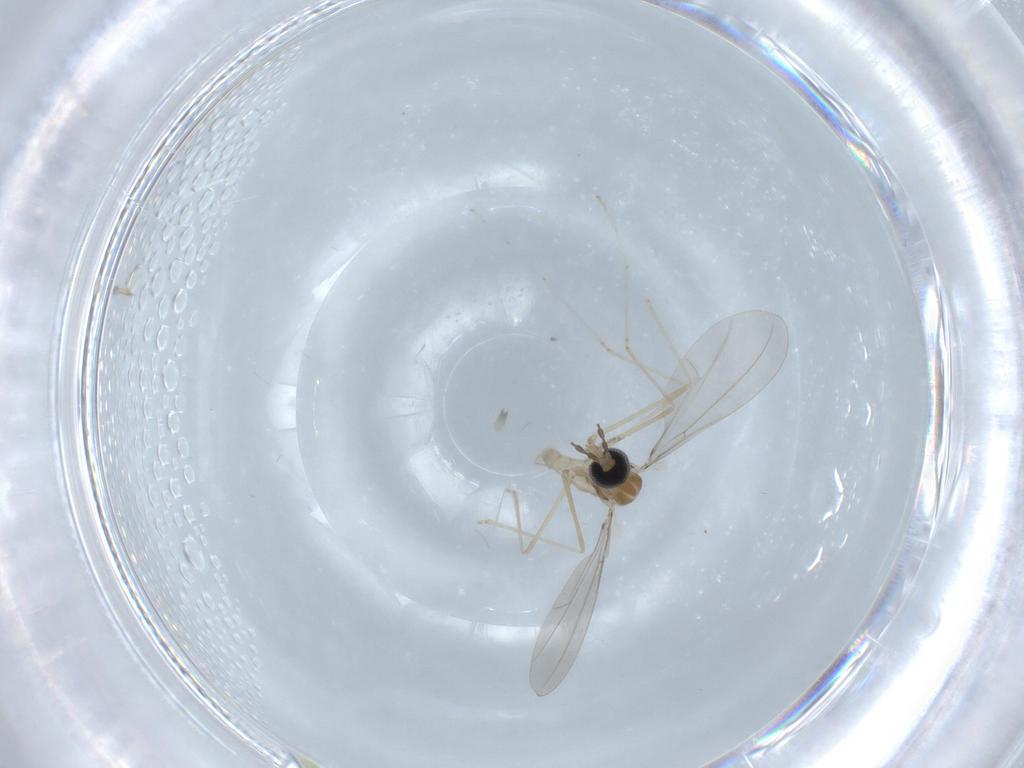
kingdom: Animalia
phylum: Arthropoda
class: Insecta
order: Diptera
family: Cecidomyiidae
